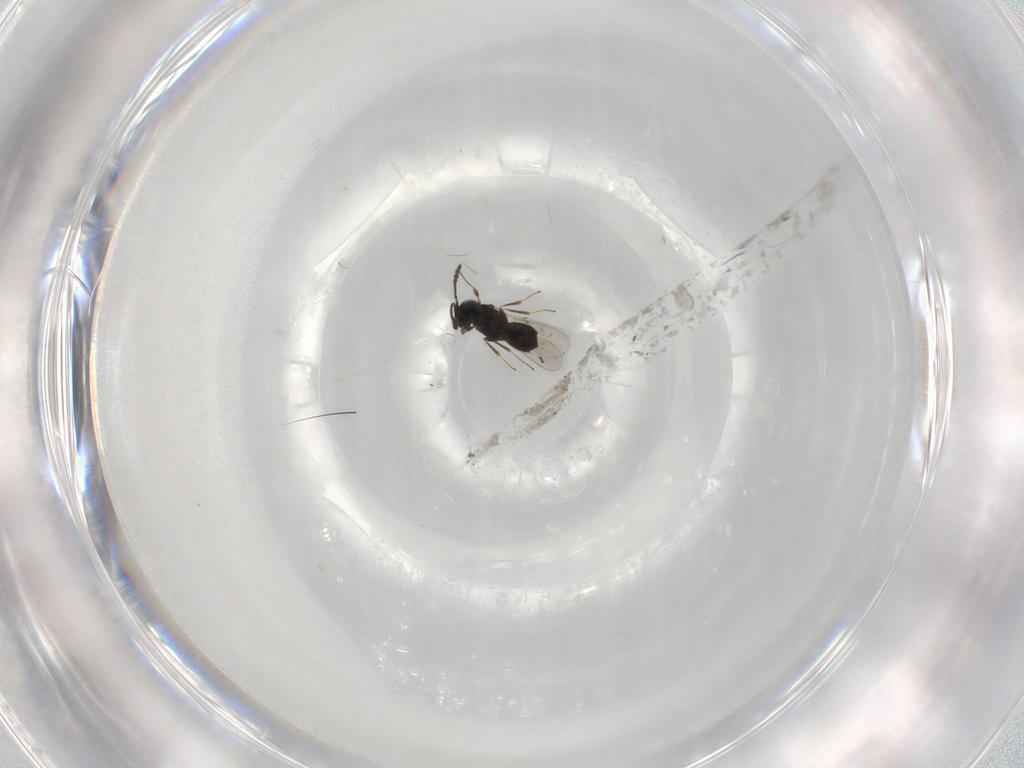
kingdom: Animalia
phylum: Arthropoda
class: Insecta
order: Hymenoptera
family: Scelionidae
